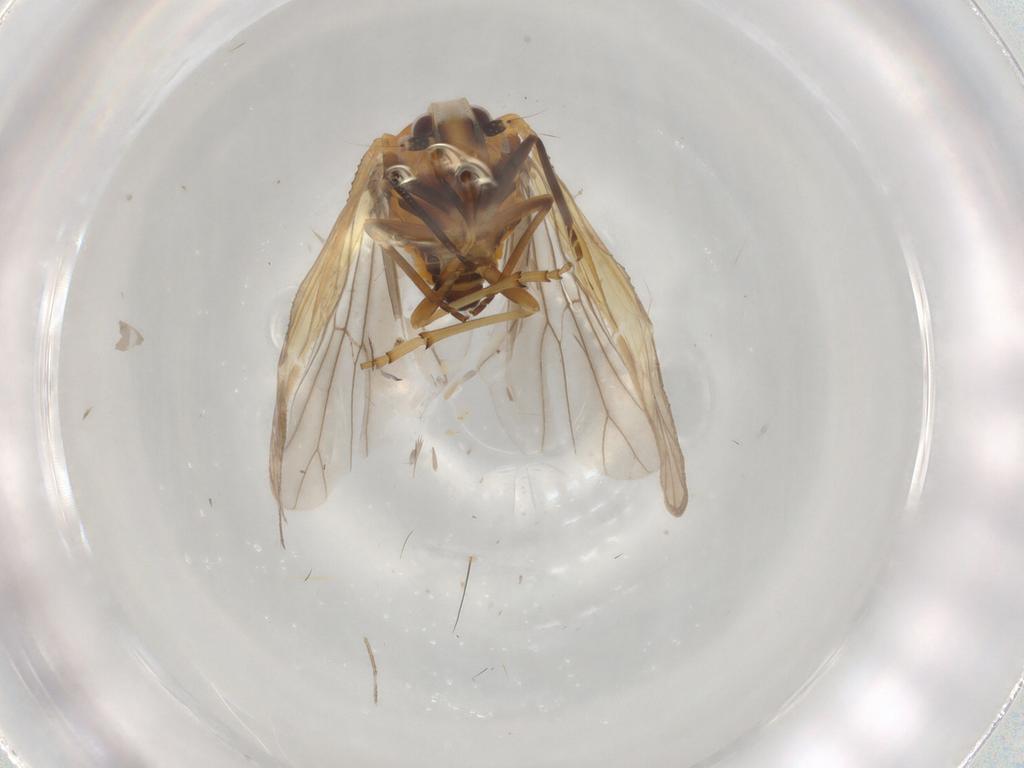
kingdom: Animalia
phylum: Arthropoda
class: Insecta
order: Hemiptera
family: Meenoplidae
